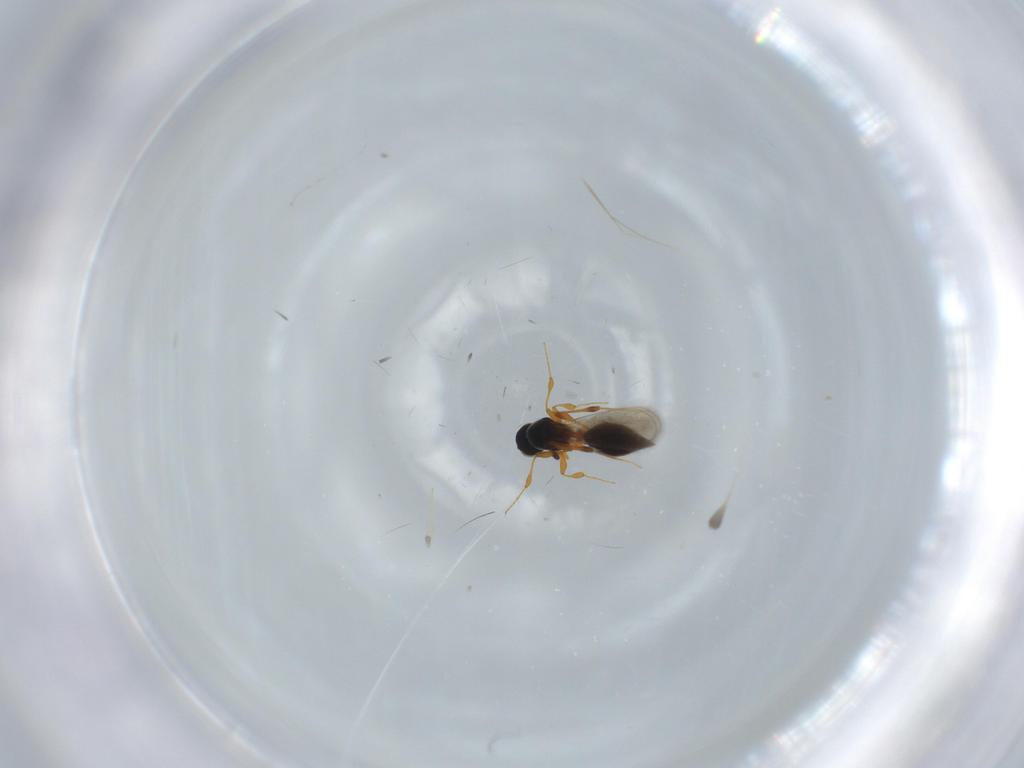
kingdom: Animalia
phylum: Arthropoda
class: Insecta
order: Hymenoptera
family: Platygastridae
